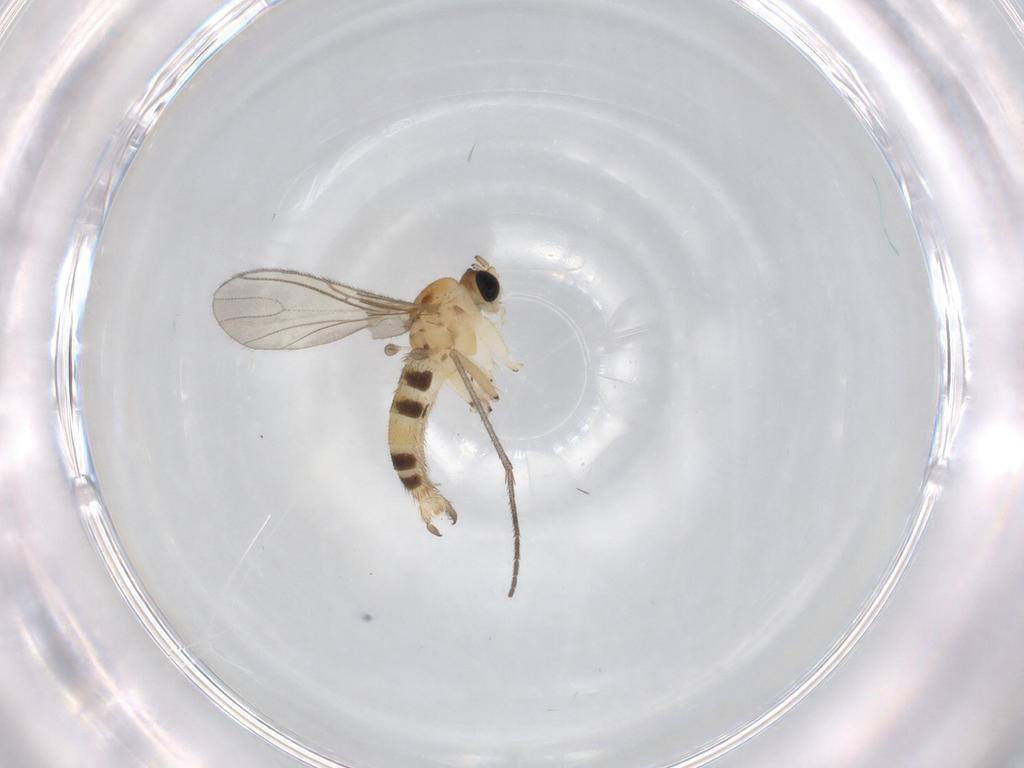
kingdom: Animalia
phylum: Arthropoda
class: Insecta
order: Diptera
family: Sciaridae
